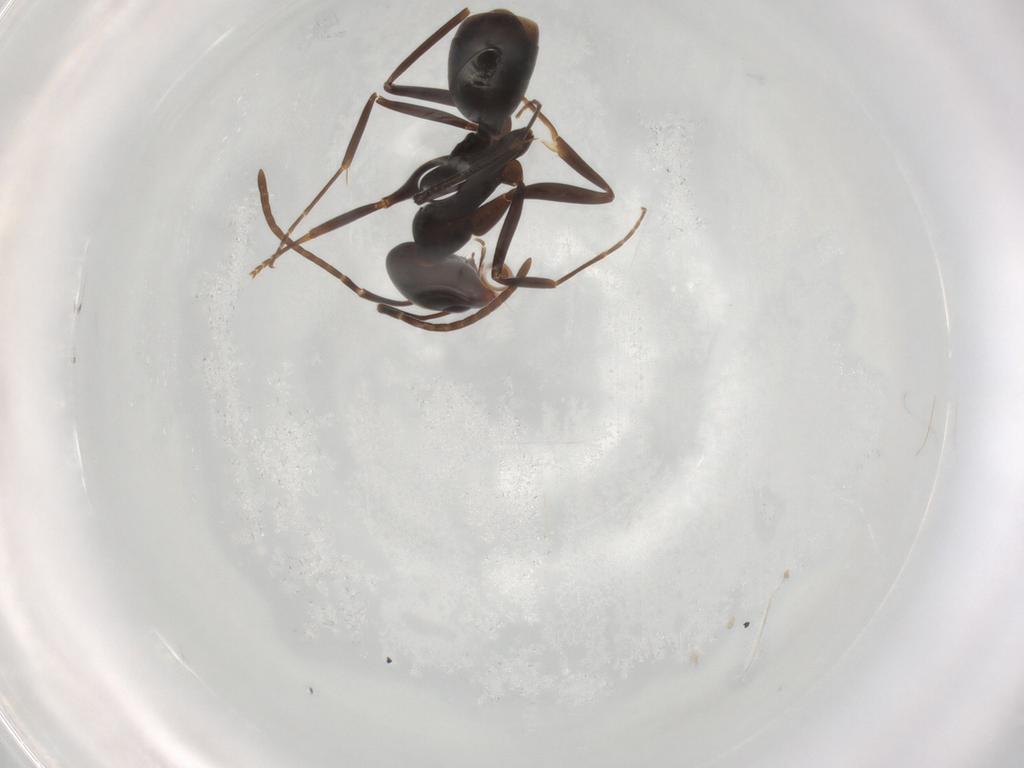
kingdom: Animalia
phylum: Arthropoda
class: Insecta
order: Hymenoptera
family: Formicidae
